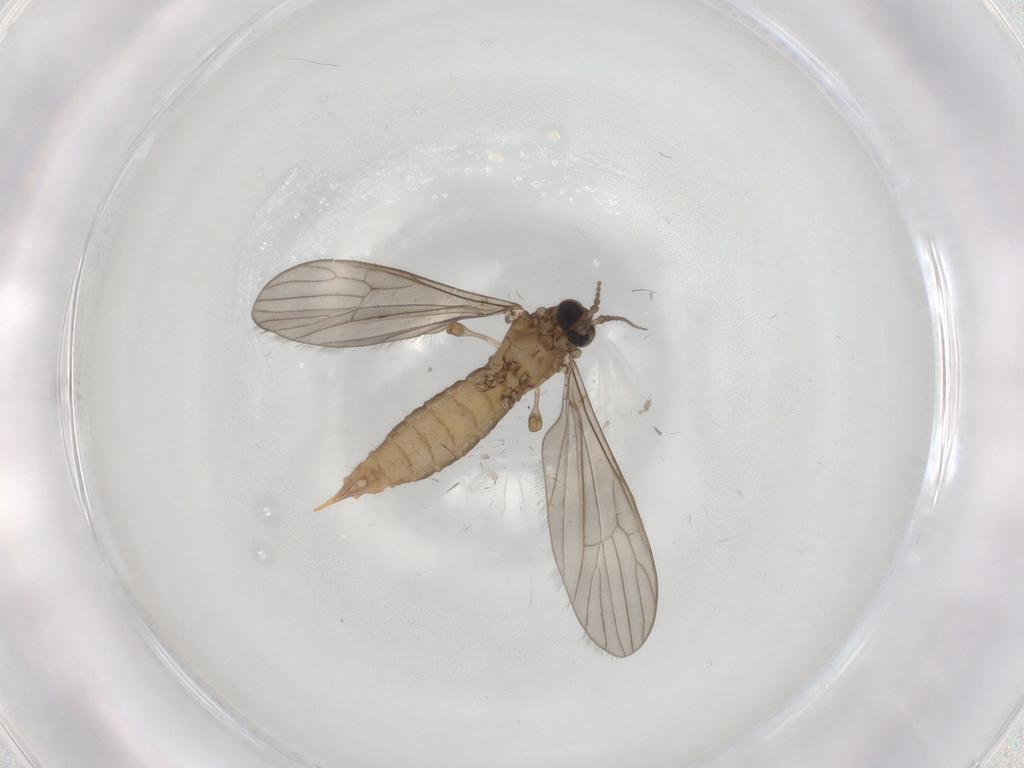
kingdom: Animalia
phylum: Arthropoda
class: Insecta
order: Diptera
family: Limoniidae
